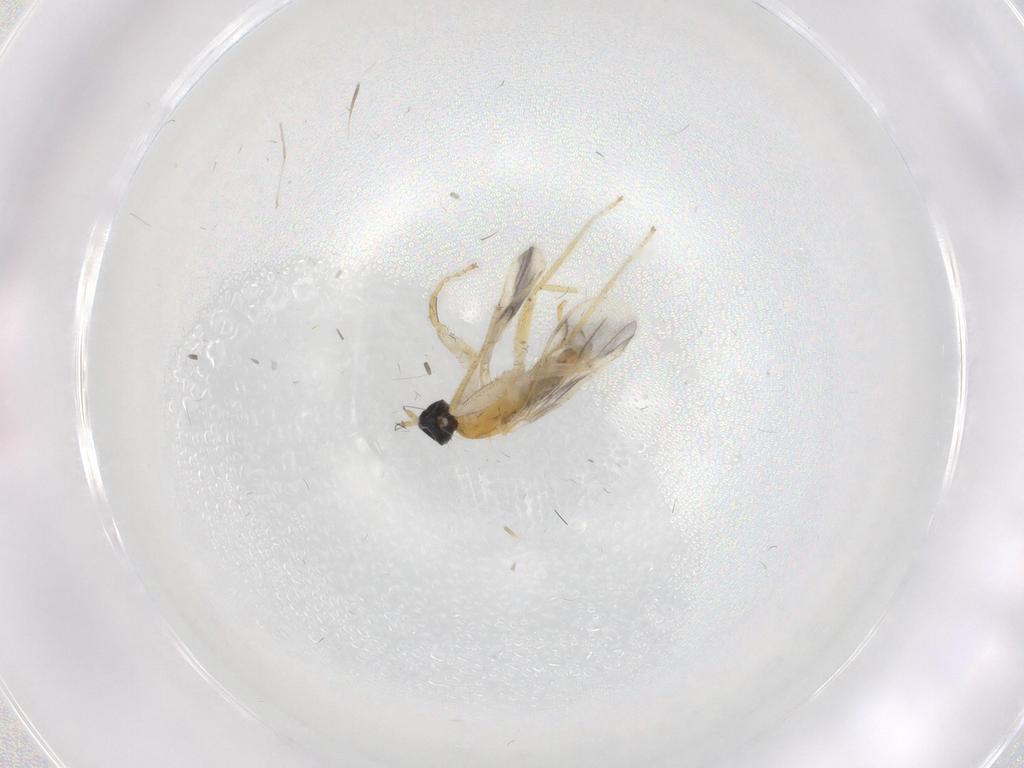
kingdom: Animalia
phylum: Arthropoda
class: Insecta
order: Diptera
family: Empididae
